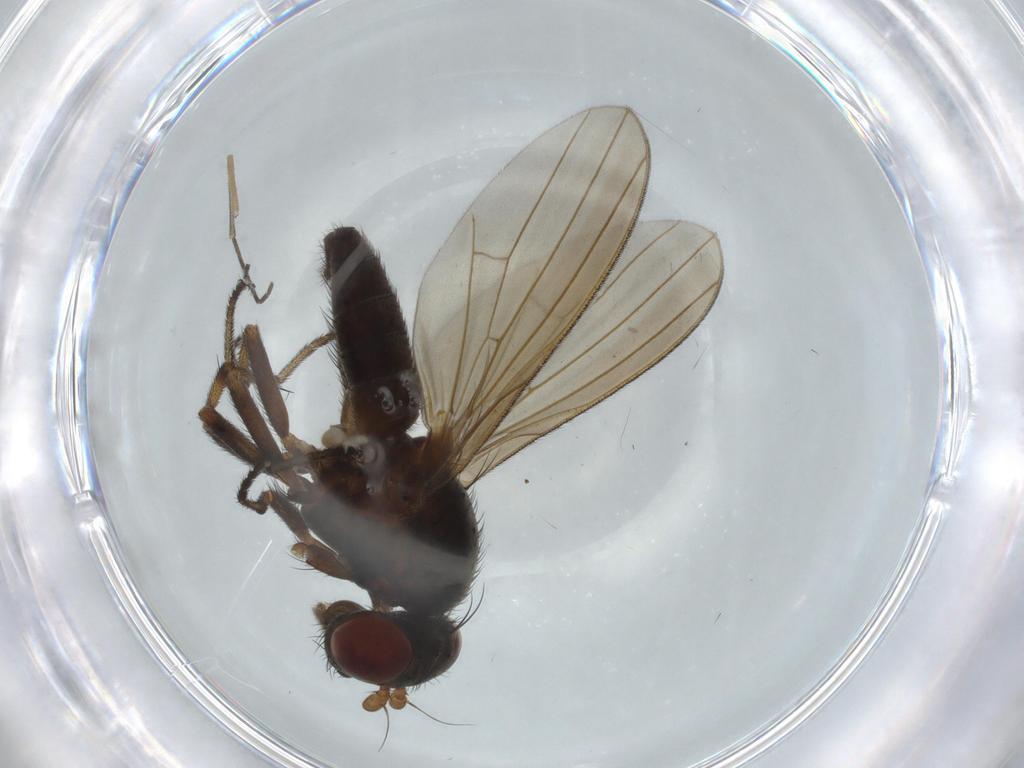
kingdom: Animalia
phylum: Arthropoda
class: Insecta
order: Diptera
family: Lauxaniidae
